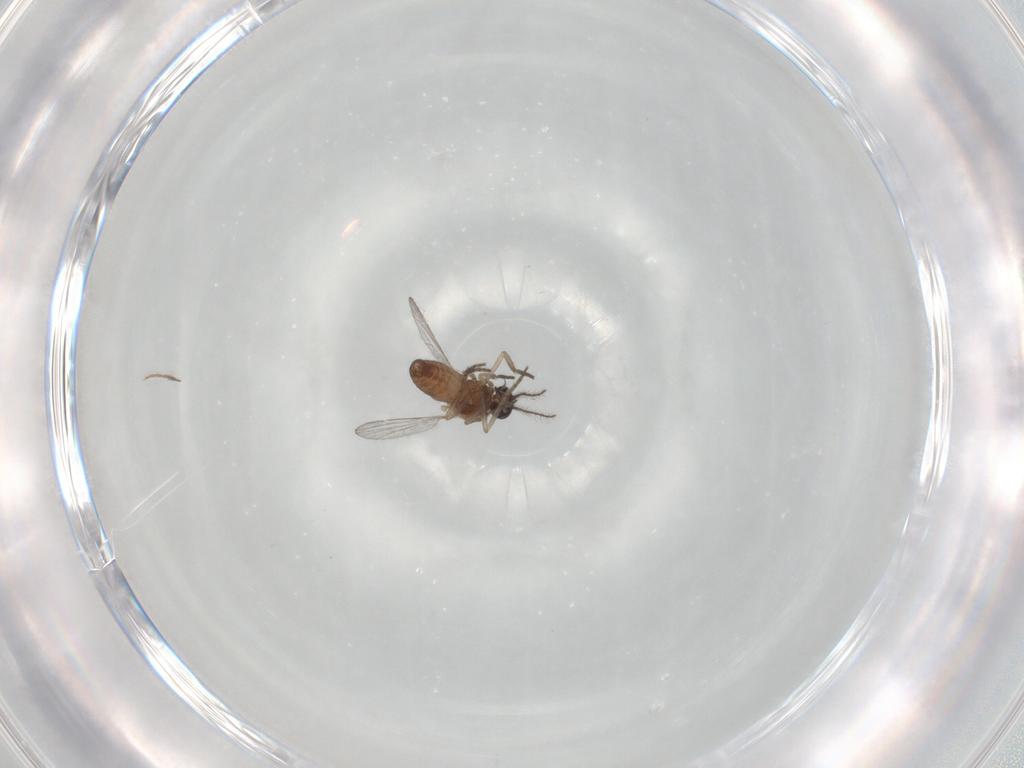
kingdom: Animalia
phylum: Arthropoda
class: Insecta
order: Diptera
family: Chironomidae
